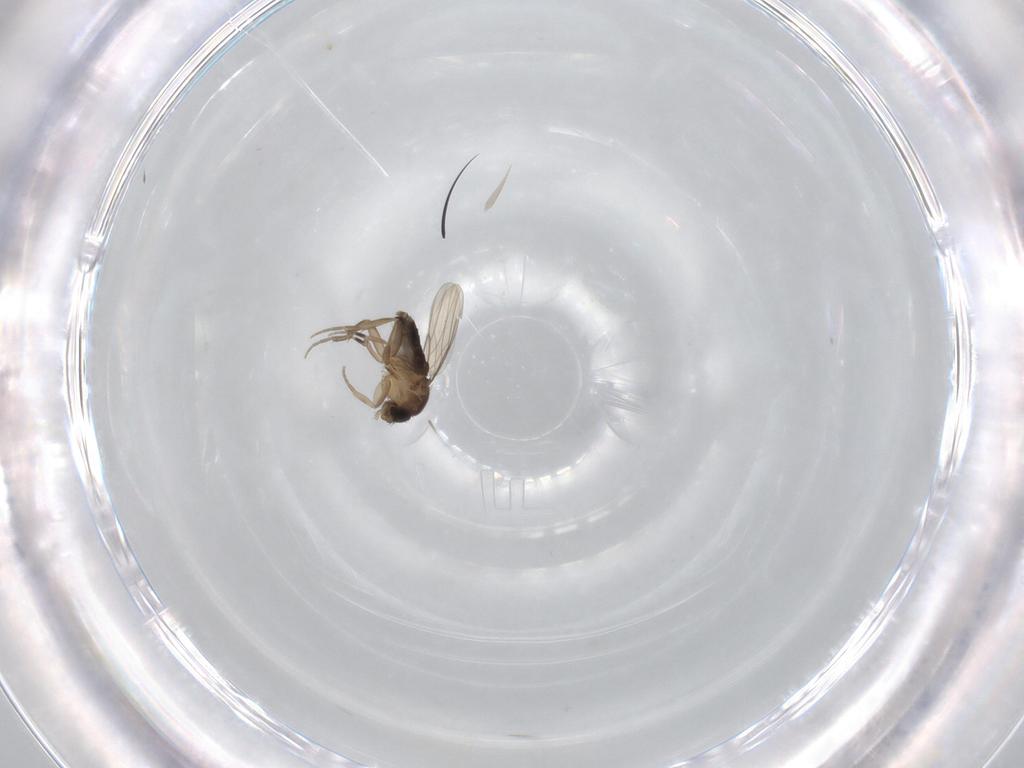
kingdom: Animalia
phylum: Arthropoda
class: Insecta
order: Diptera
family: Phoridae
